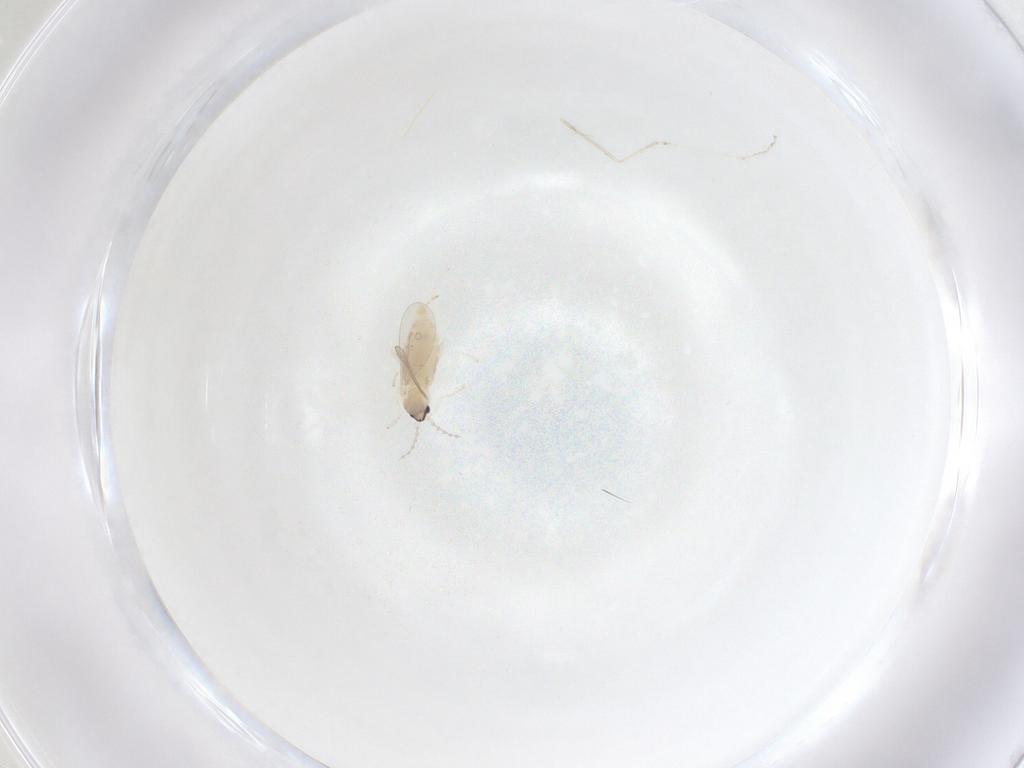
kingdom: Animalia
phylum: Arthropoda
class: Insecta
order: Diptera
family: Cecidomyiidae
